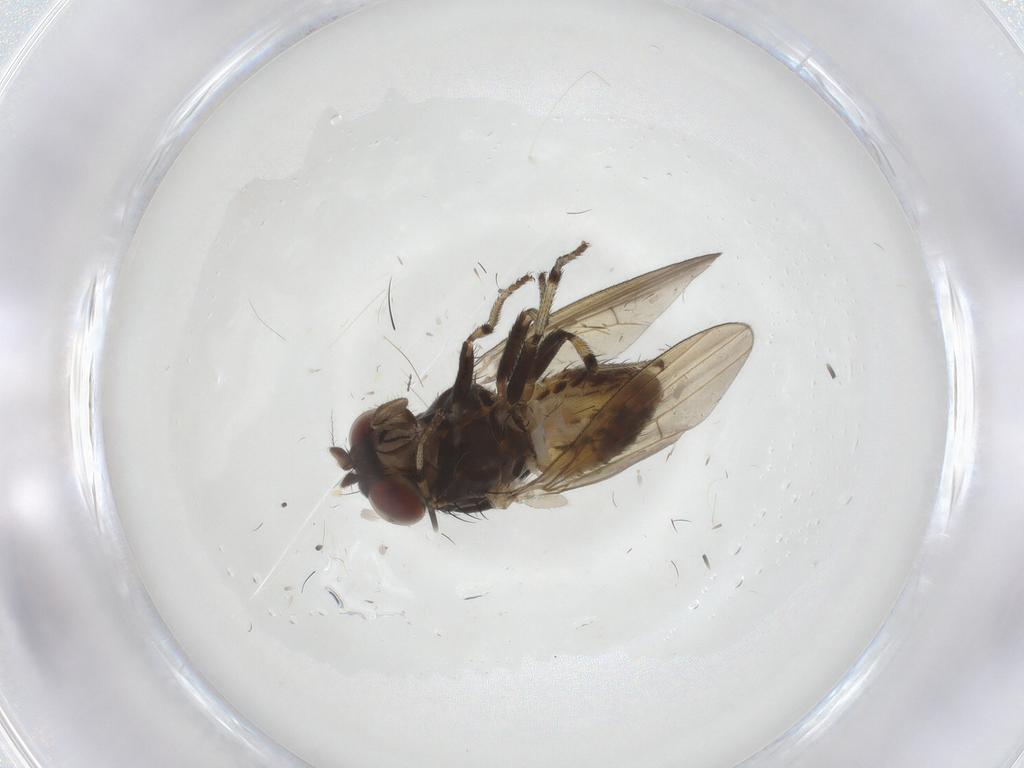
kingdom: Animalia
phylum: Arthropoda
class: Insecta
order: Diptera
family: Chironomidae
